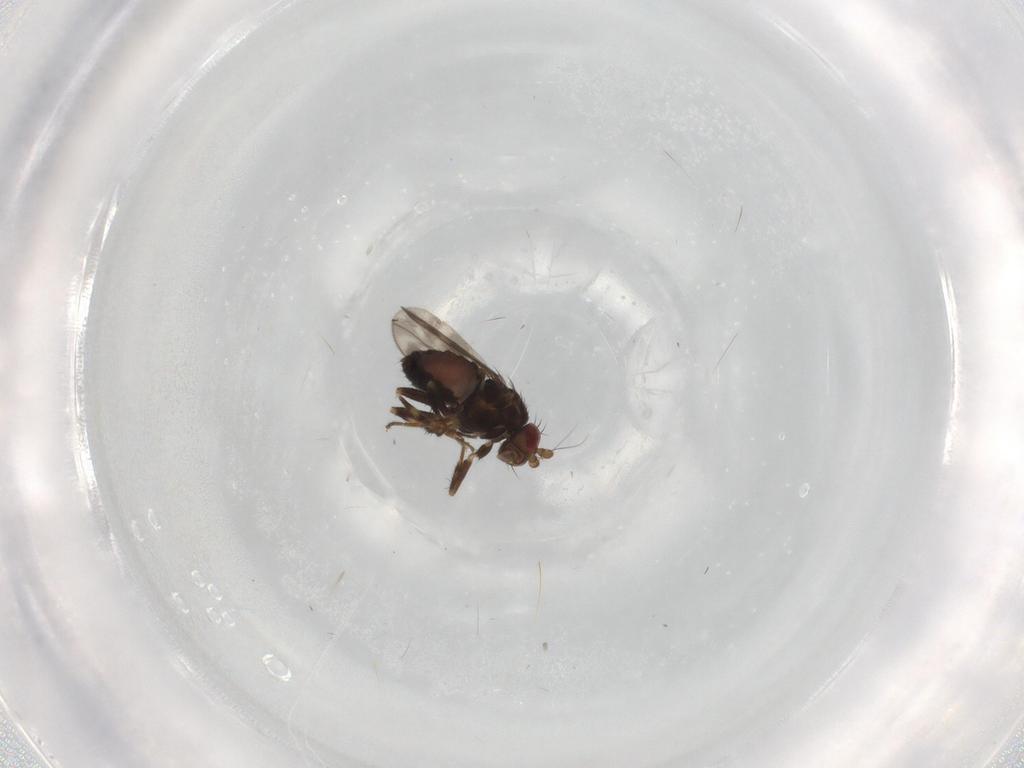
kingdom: Animalia
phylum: Arthropoda
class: Insecta
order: Diptera
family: Sphaeroceridae
